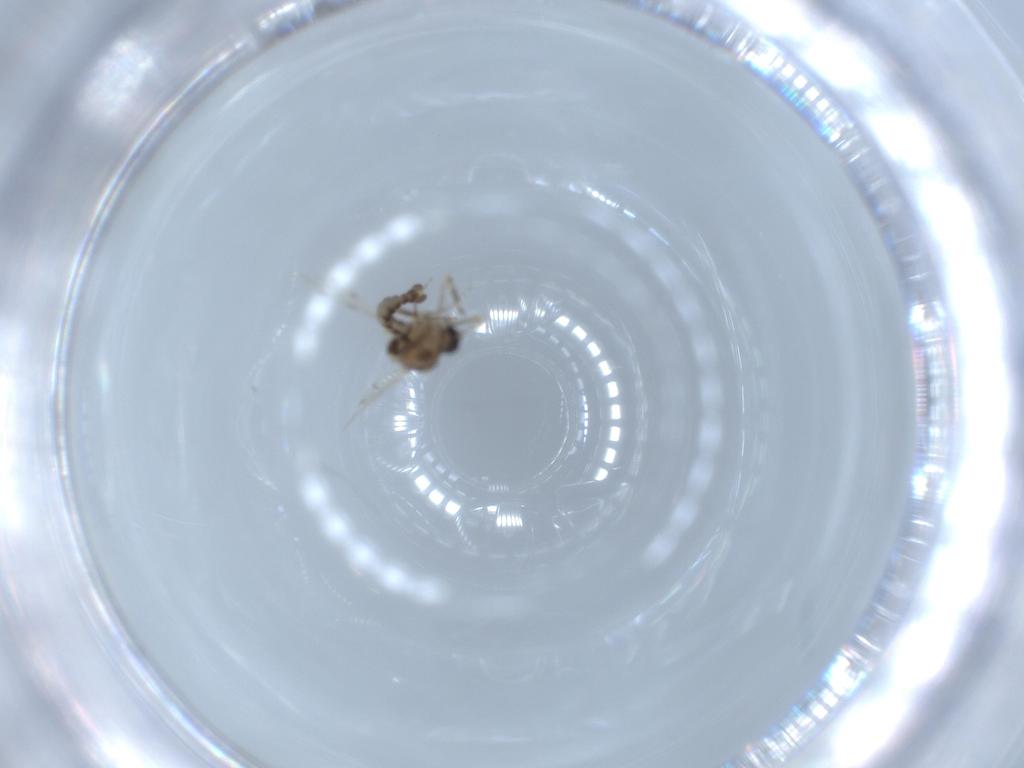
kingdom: Animalia
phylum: Arthropoda
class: Insecta
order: Diptera
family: Ceratopogonidae
